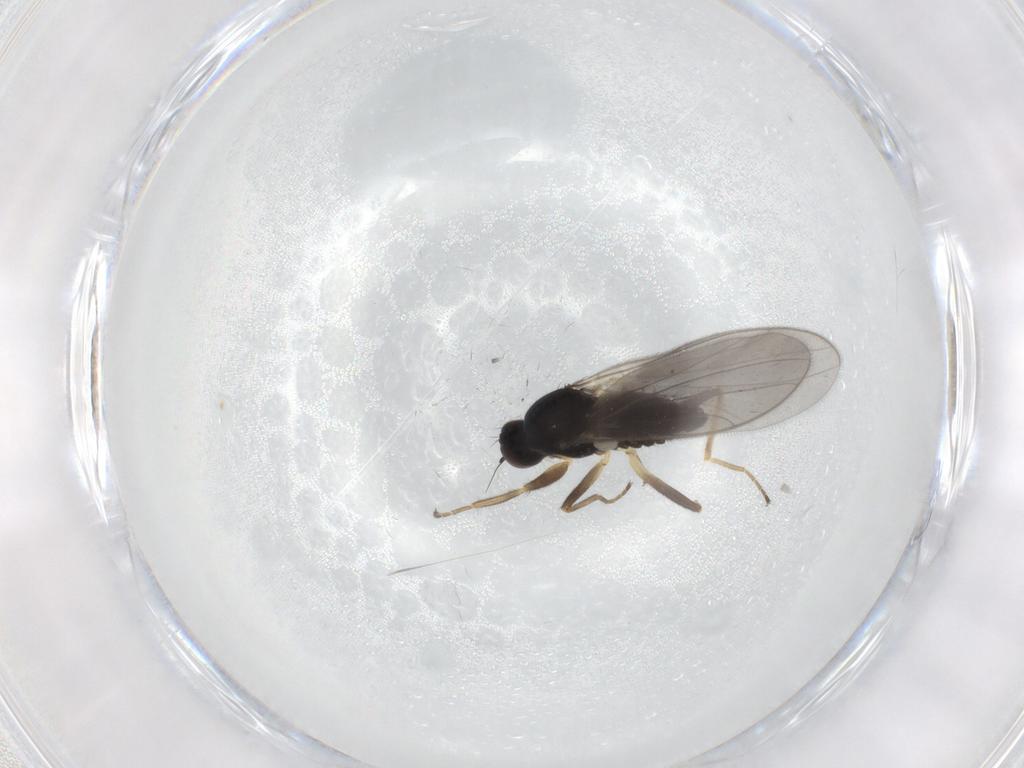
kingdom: Animalia
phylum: Arthropoda
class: Insecta
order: Diptera
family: Hybotidae
